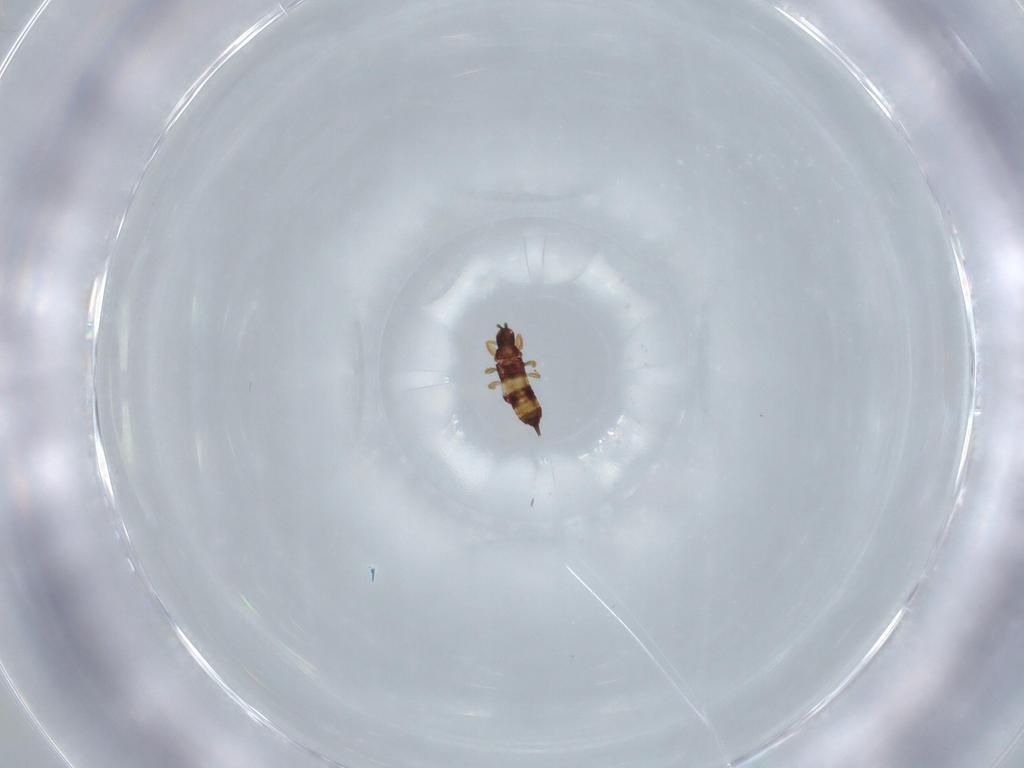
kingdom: Animalia
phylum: Arthropoda
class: Insecta
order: Thysanoptera
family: Phlaeothripidae
